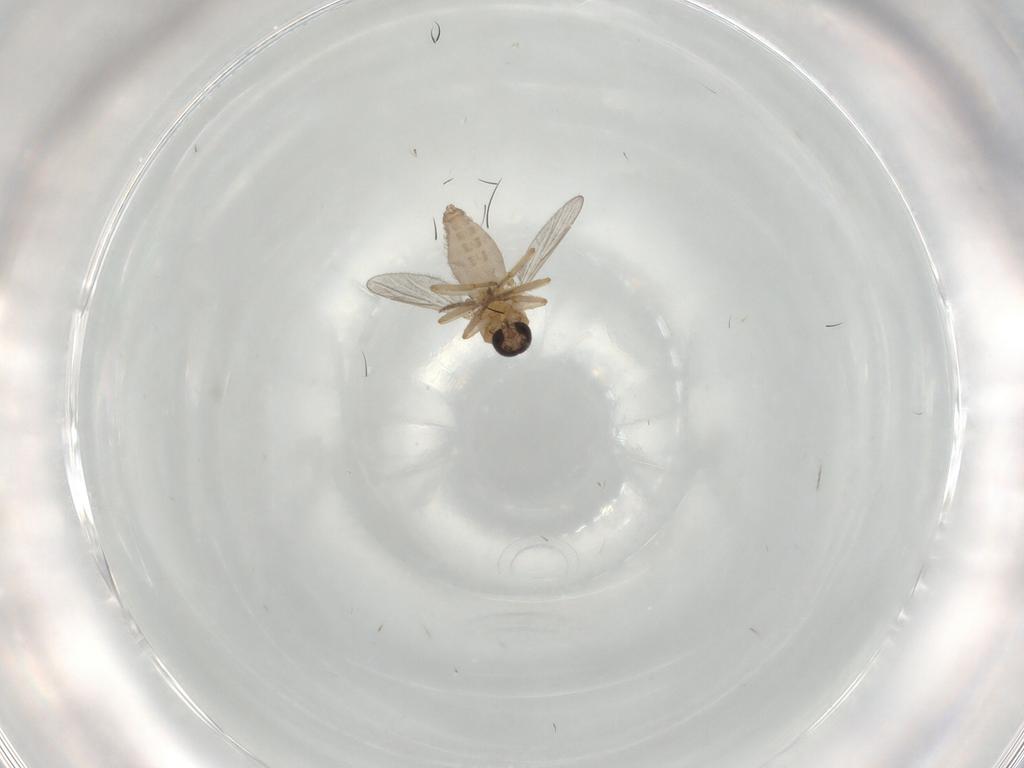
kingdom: Animalia
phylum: Arthropoda
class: Insecta
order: Diptera
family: Ceratopogonidae
